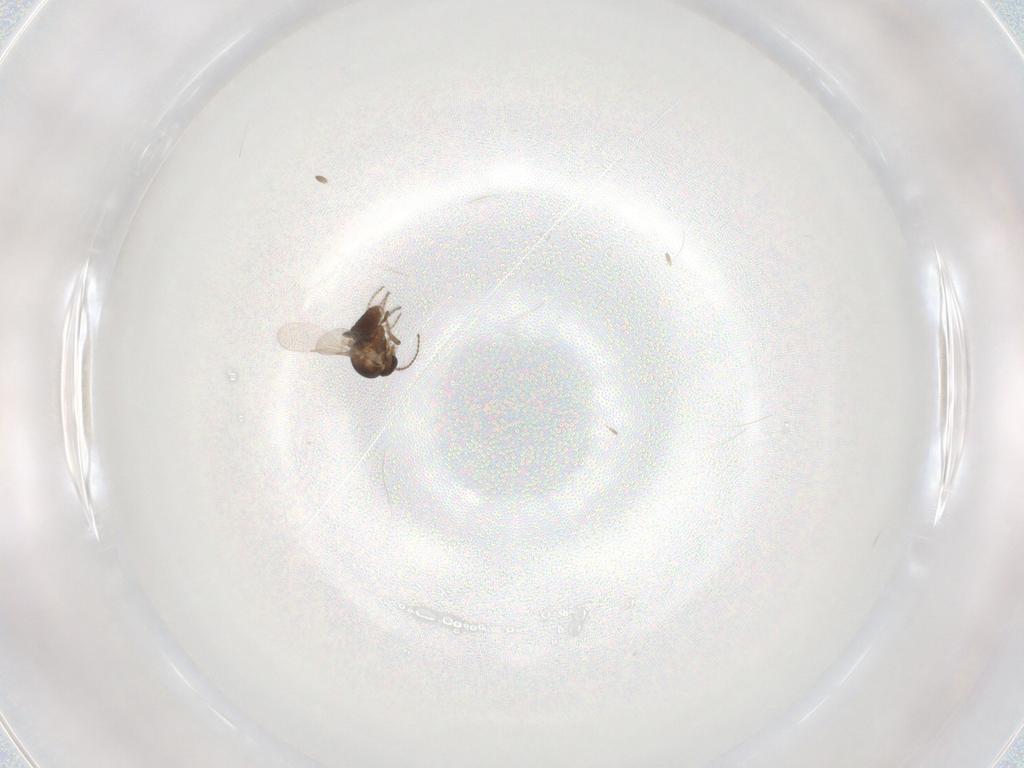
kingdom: Animalia
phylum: Arthropoda
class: Insecta
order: Diptera
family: Ceratopogonidae
